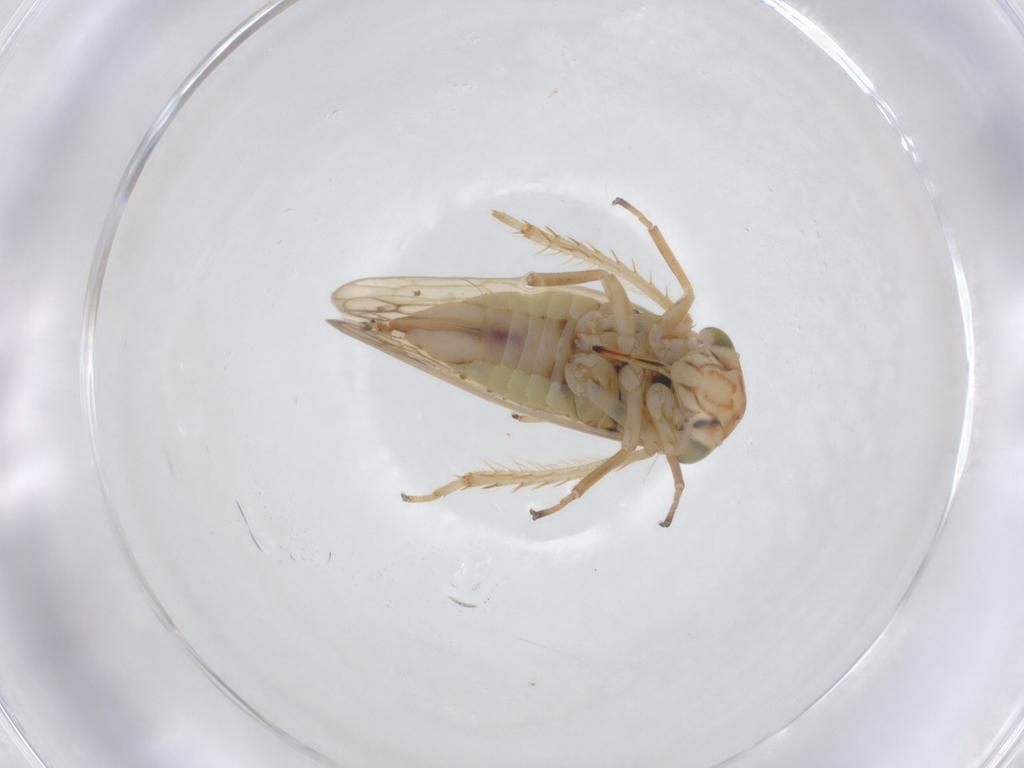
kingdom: Animalia
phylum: Arthropoda
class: Insecta
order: Hemiptera
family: Cicadellidae
